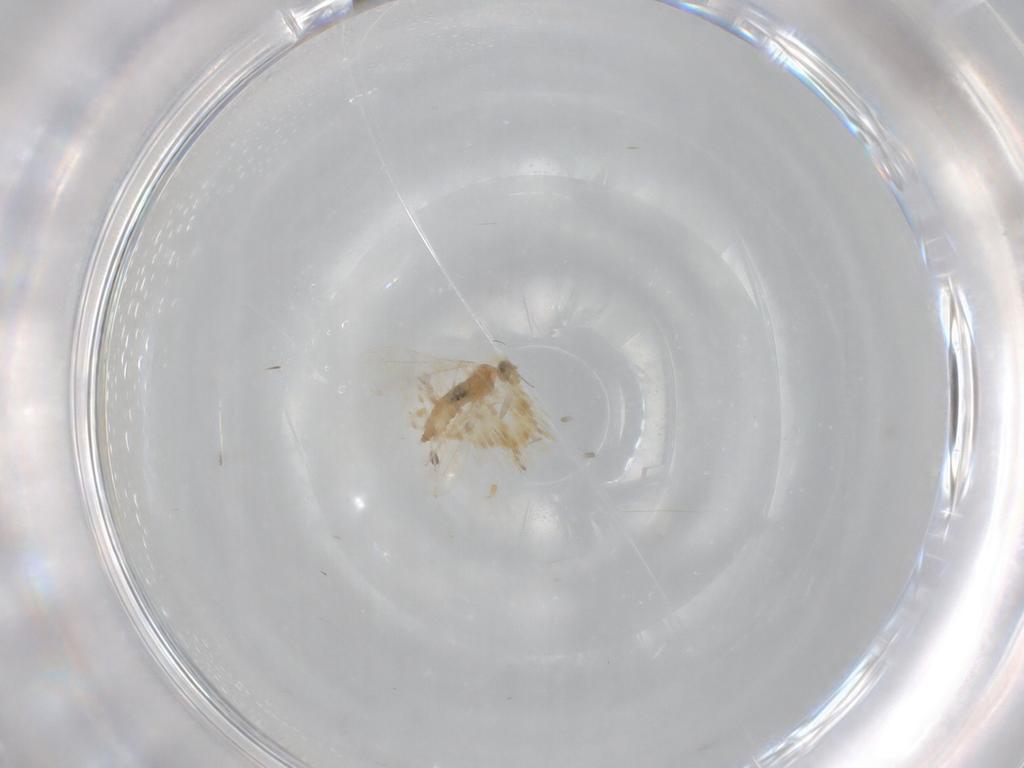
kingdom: Animalia
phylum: Arthropoda
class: Insecta
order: Diptera
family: Cecidomyiidae
